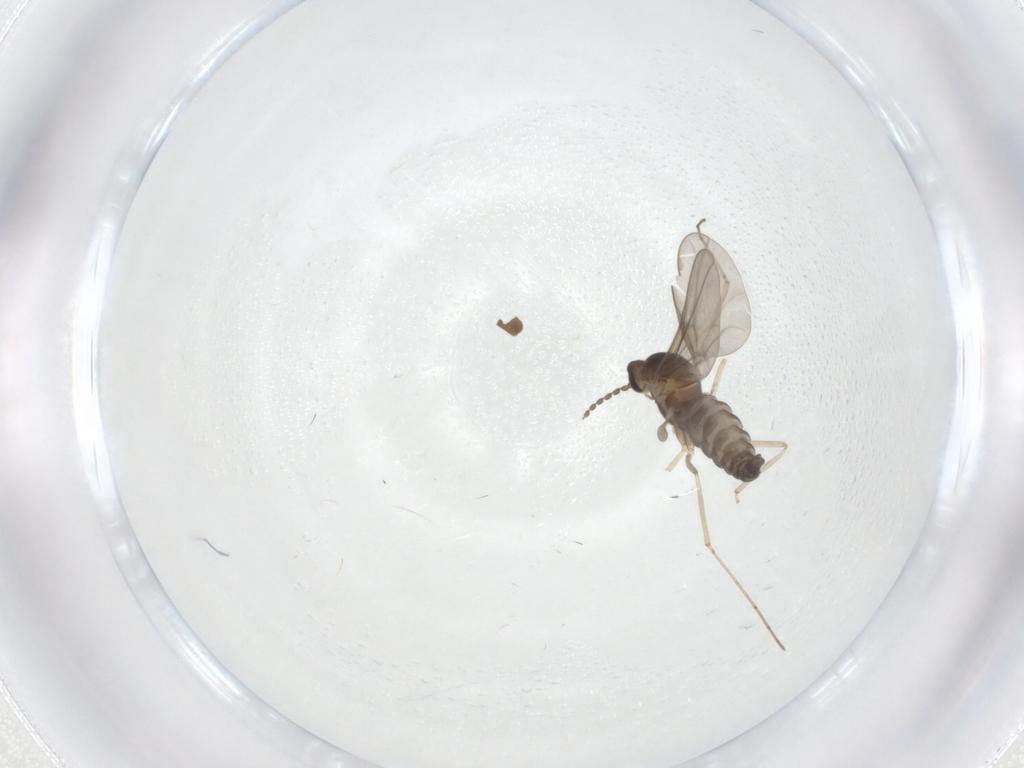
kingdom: Animalia
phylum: Arthropoda
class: Insecta
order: Diptera
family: Cecidomyiidae
